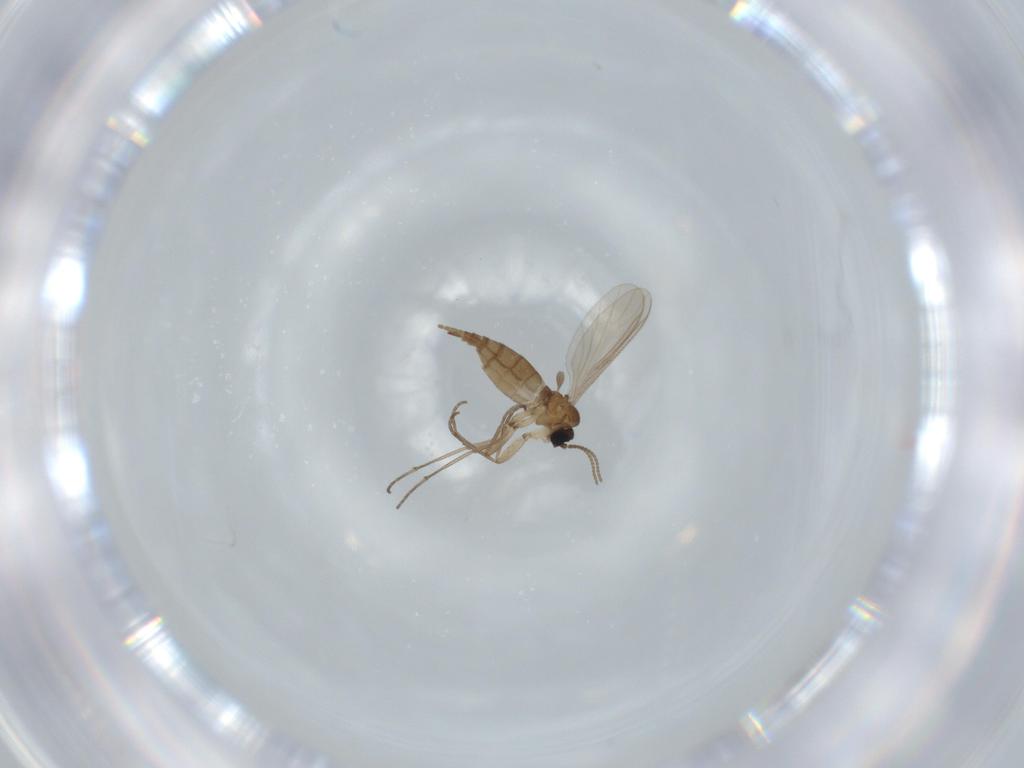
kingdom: Animalia
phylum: Arthropoda
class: Insecta
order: Diptera
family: Sciaridae
